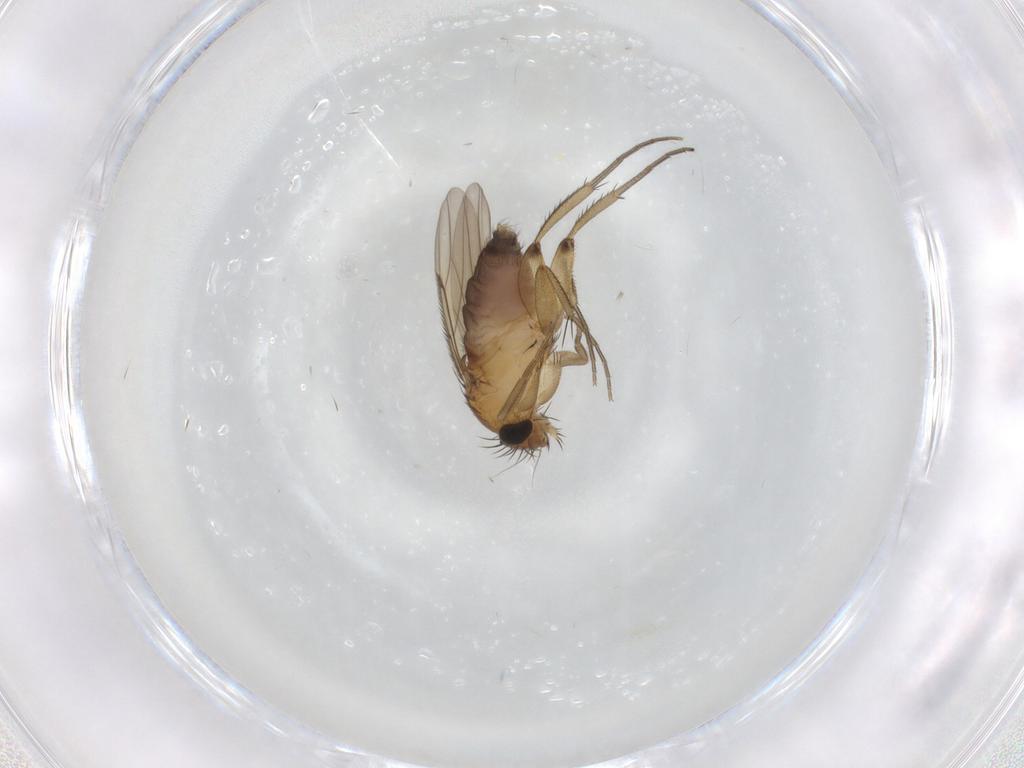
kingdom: Animalia
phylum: Arthropoda
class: Insecta
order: Diptera
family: Phoridae
